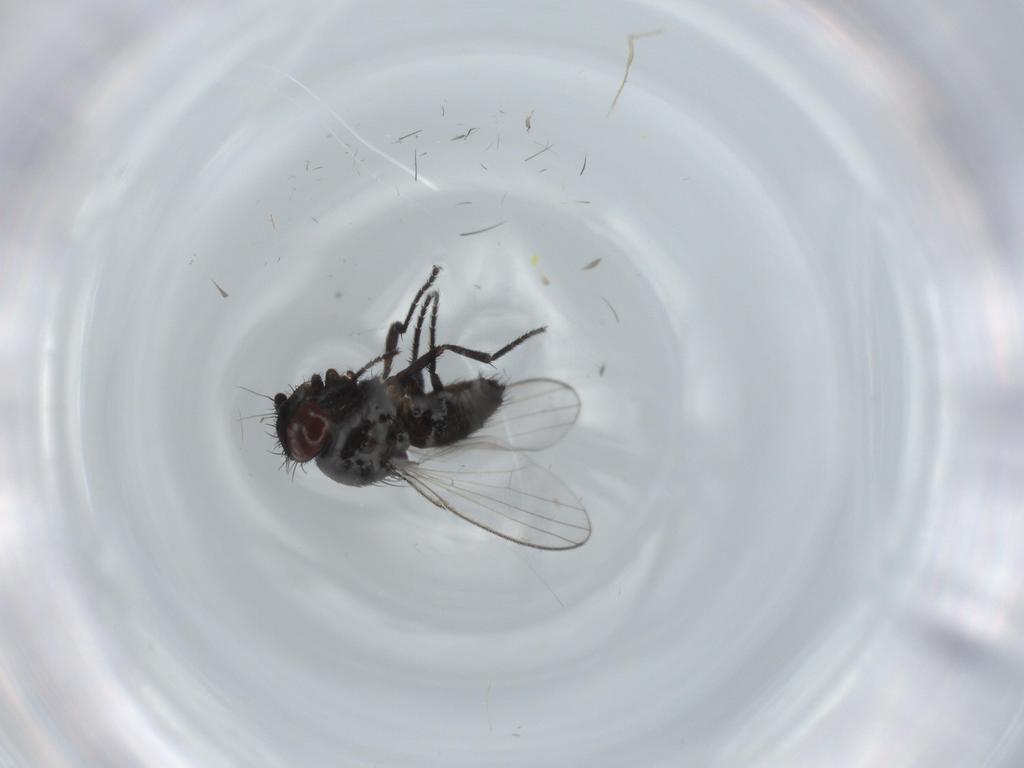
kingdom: Animalia
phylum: Arthropoda
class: Insecta
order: Diptera
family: Milichiidae
